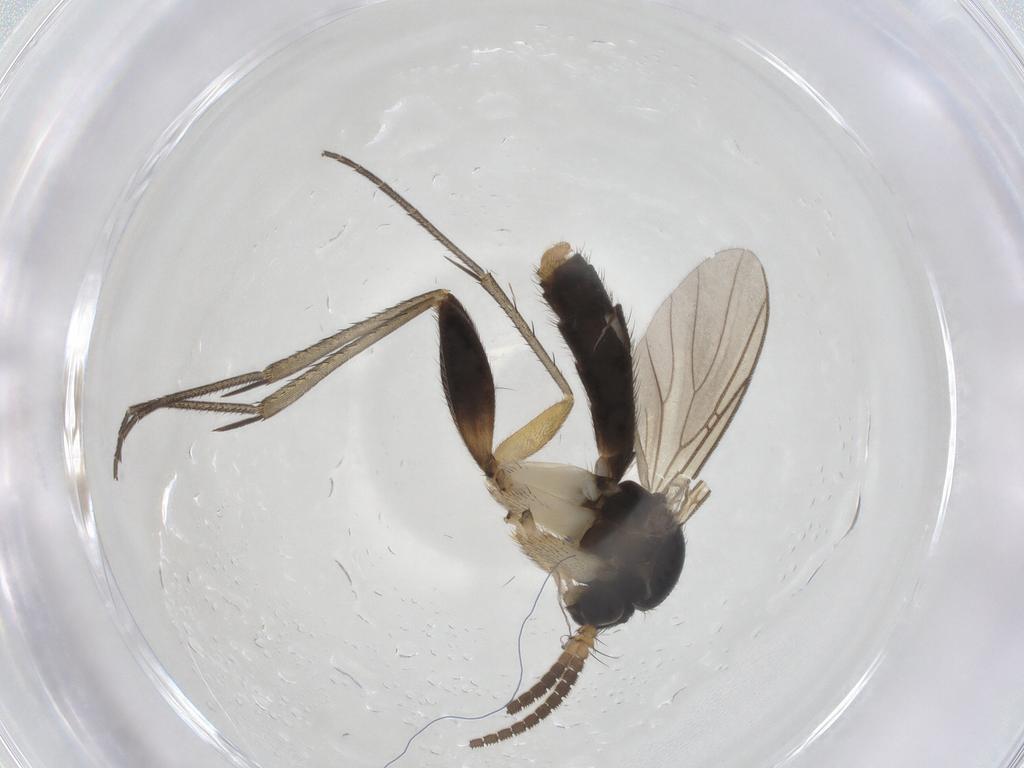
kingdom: Animalia
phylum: Arthropoda
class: Insecta
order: Diptera
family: Mycetophilidae
